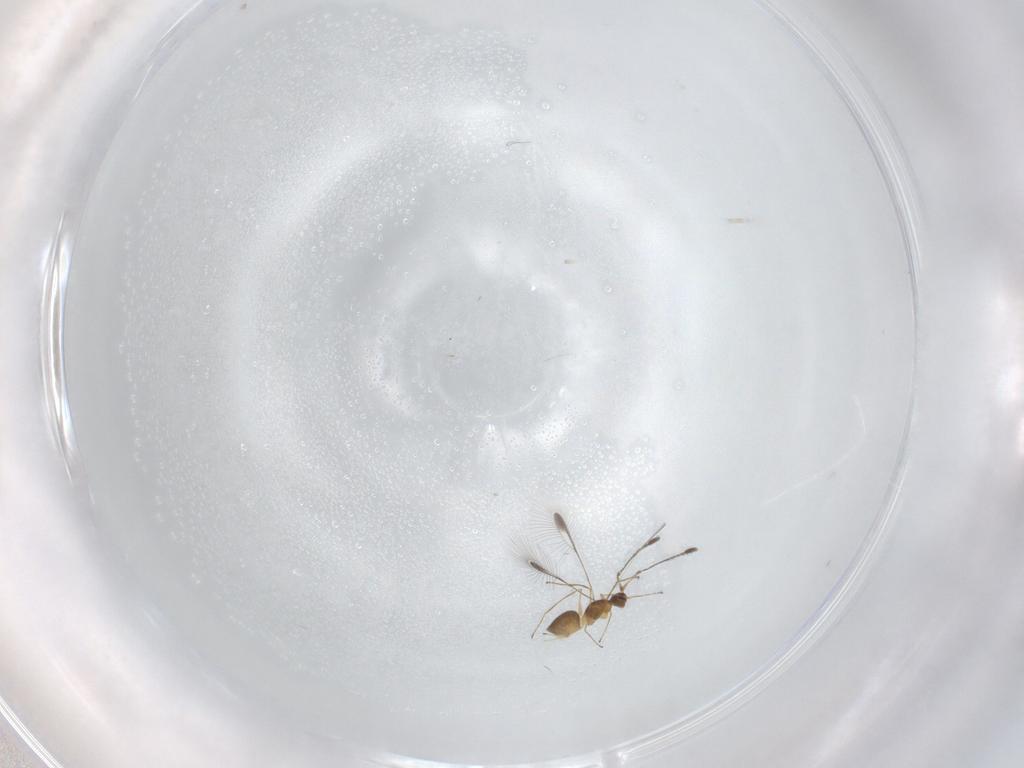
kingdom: Animalia
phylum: Arthropoda
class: Insecta
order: Hymenoptera
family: Mymaridae
